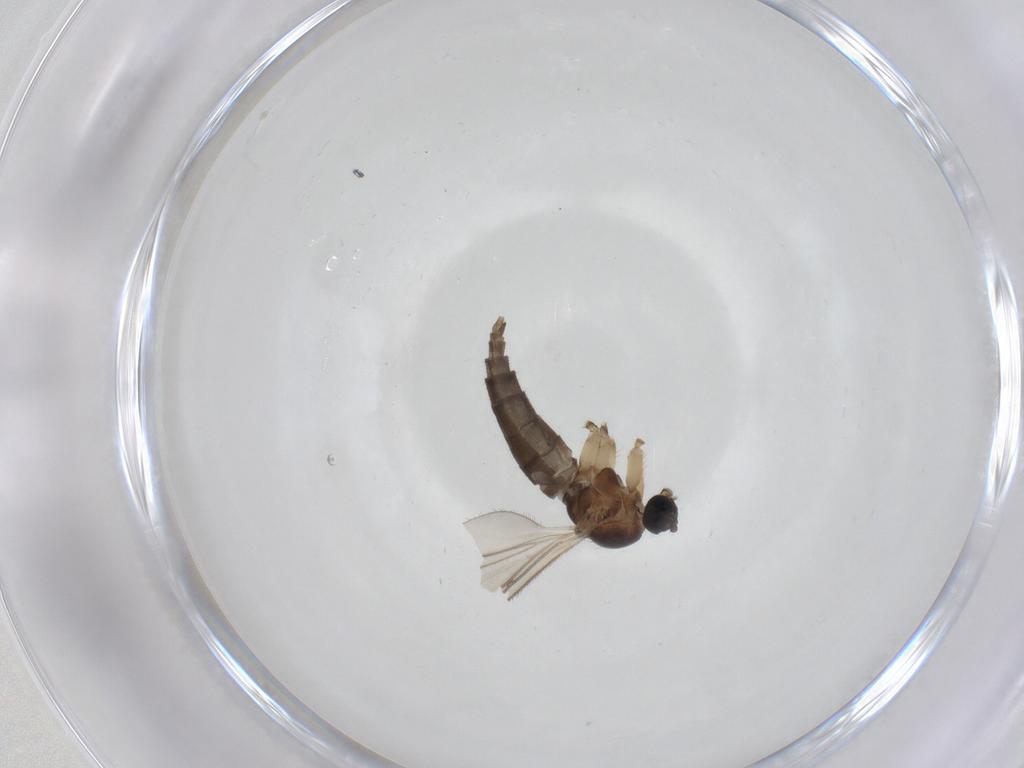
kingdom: Animalia
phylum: Arthropoda
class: Insecta
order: Diptera
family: Sciaridae
